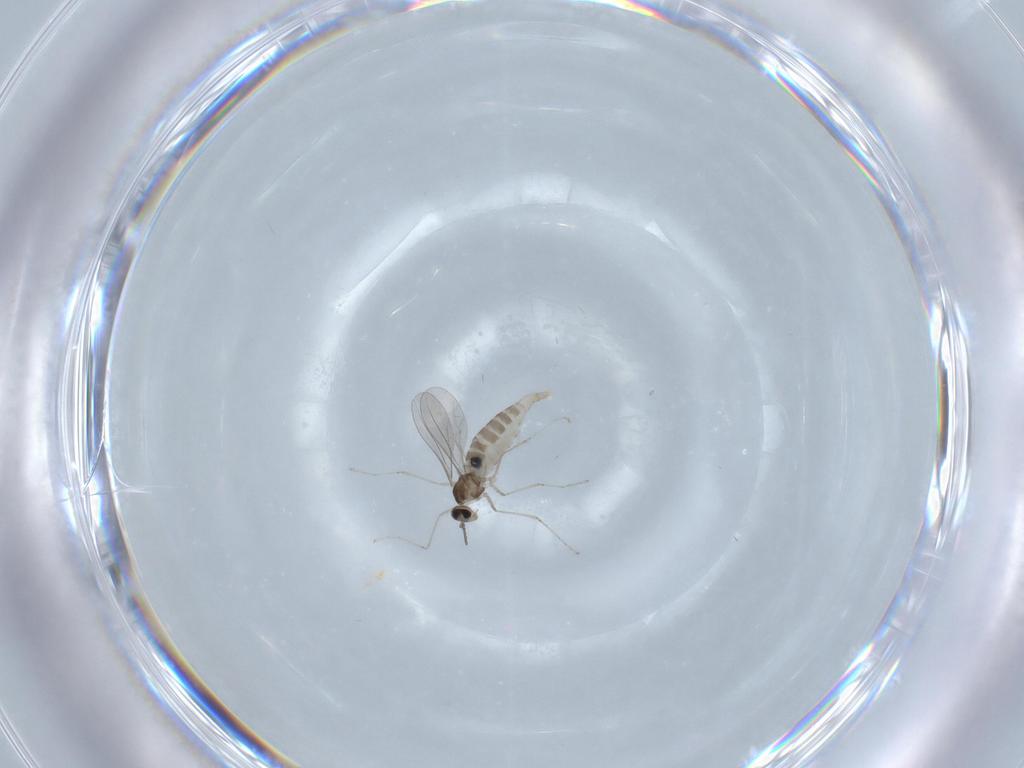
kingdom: Animalia
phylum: Arthropoda
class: Insecta
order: Diptera
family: Cecidomyiidae
